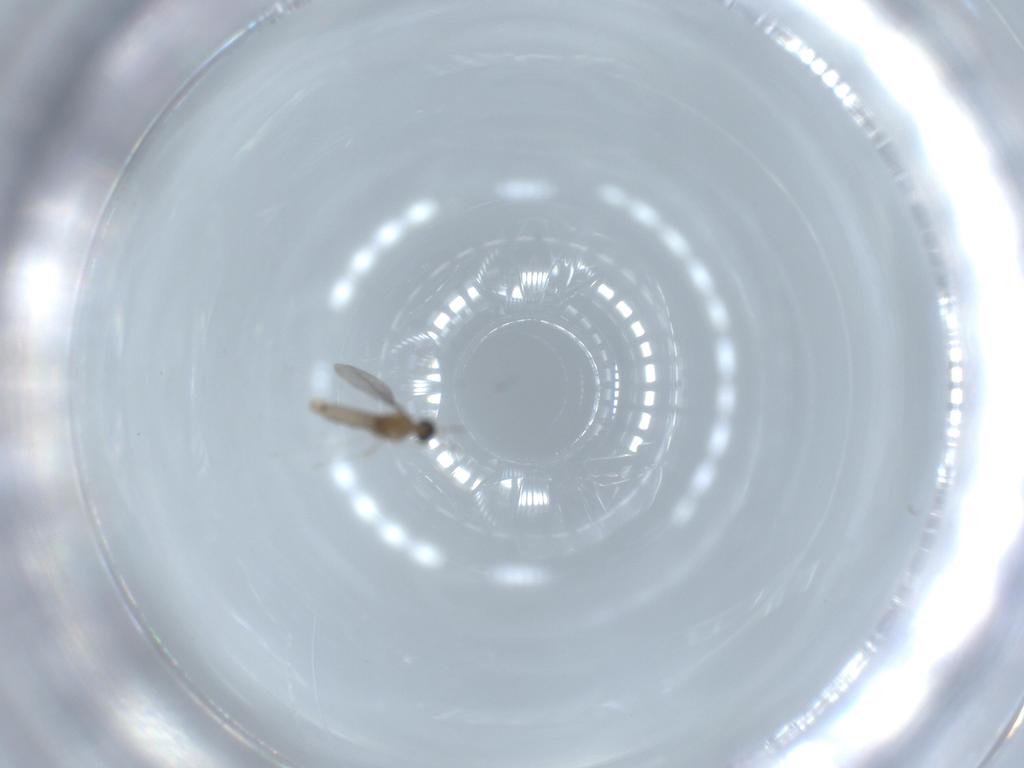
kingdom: Animalia
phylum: Arthropoda
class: Insecta
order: Diptera
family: Cecidomyiidae
